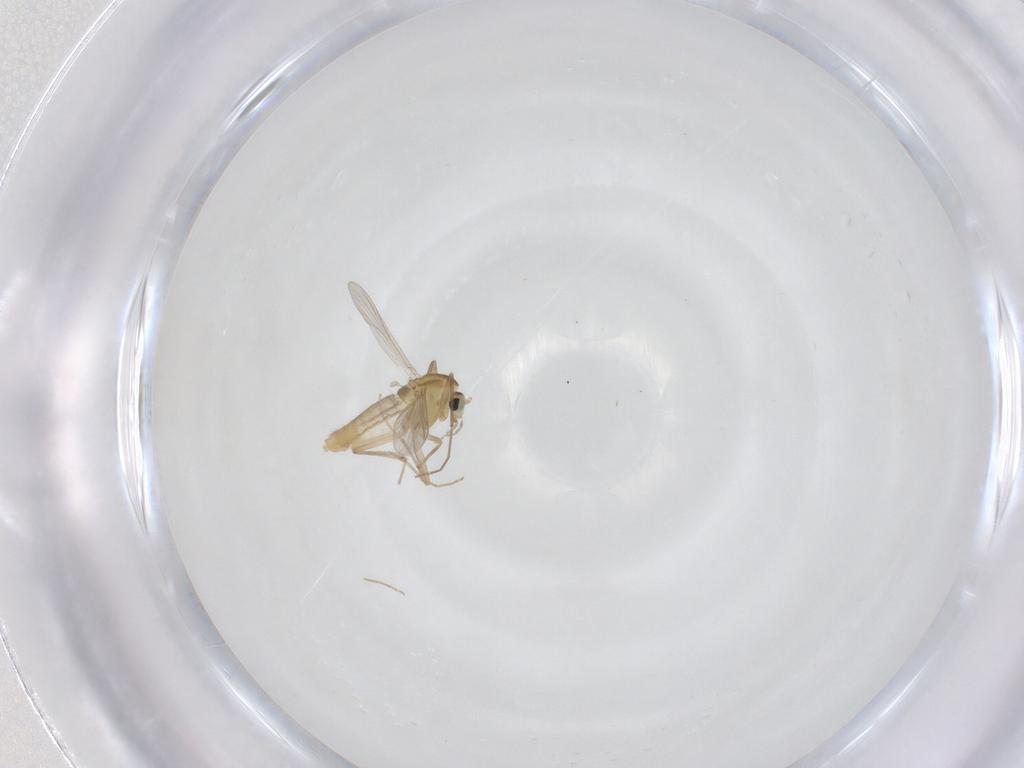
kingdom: Animalia
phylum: Arthropoda
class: Insecta
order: Diptera
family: Chironomidae
